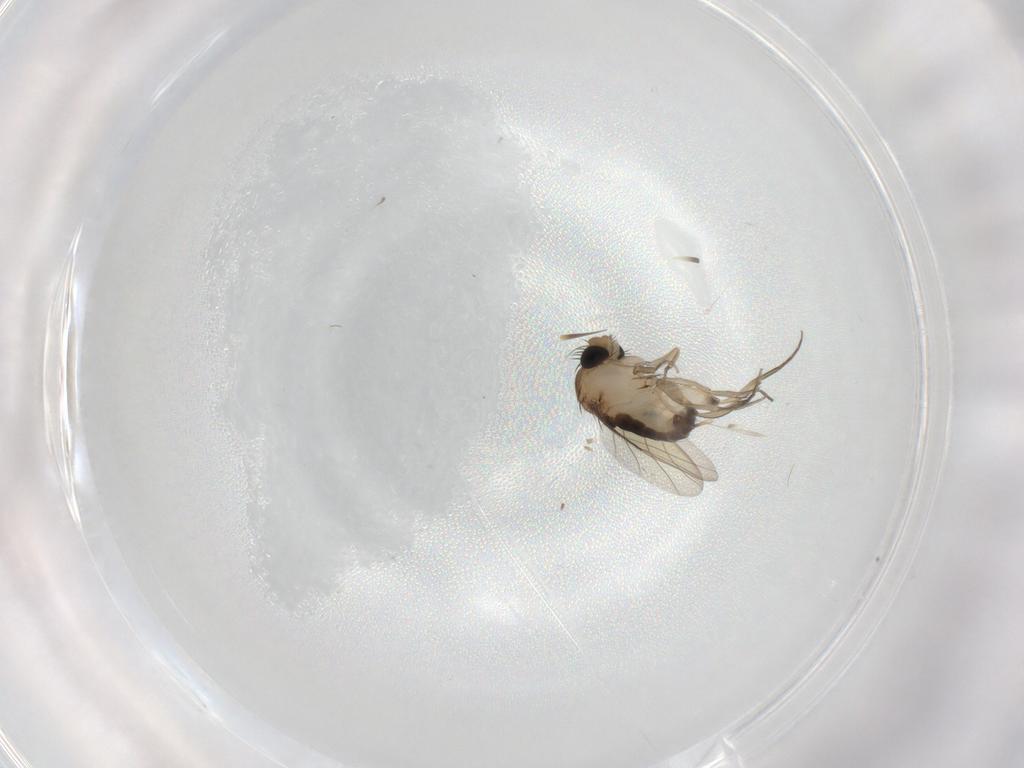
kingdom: Animalia
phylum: Arthropoda
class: Insecta
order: Diptera
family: Phoridae
